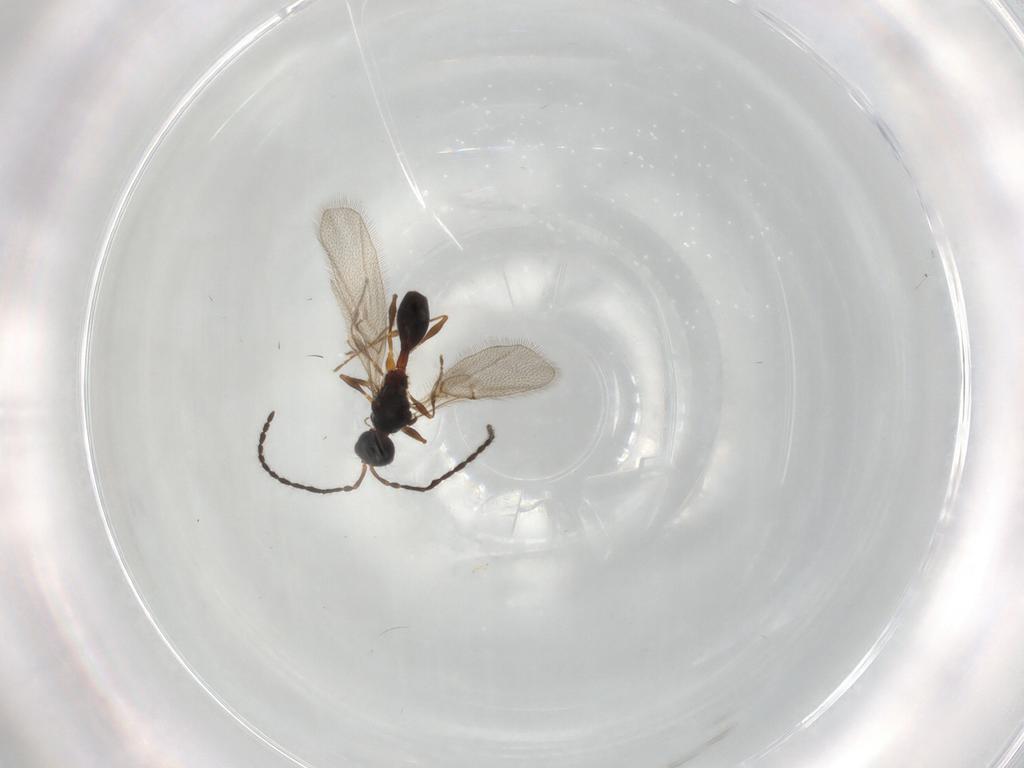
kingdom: Animalia
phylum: Arthropoda
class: Insecta
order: Hymenoptera
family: Diapriidae
